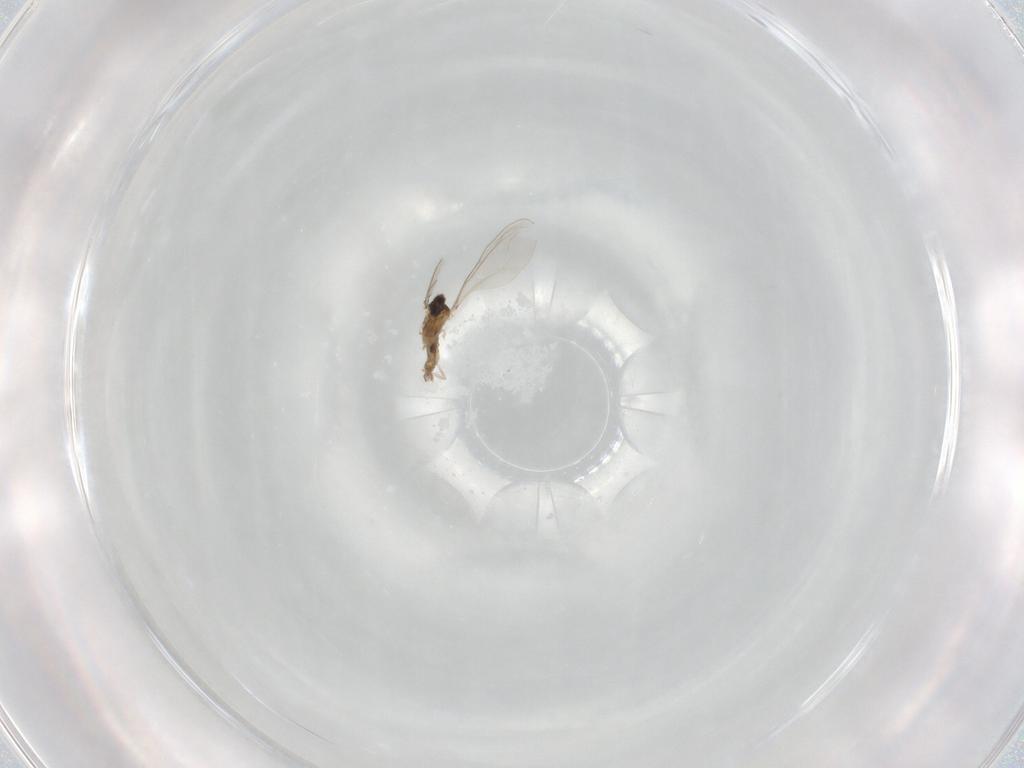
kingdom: Animalia
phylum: Arthropoda
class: Insecta
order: Diptera
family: Cecidomyiidae
